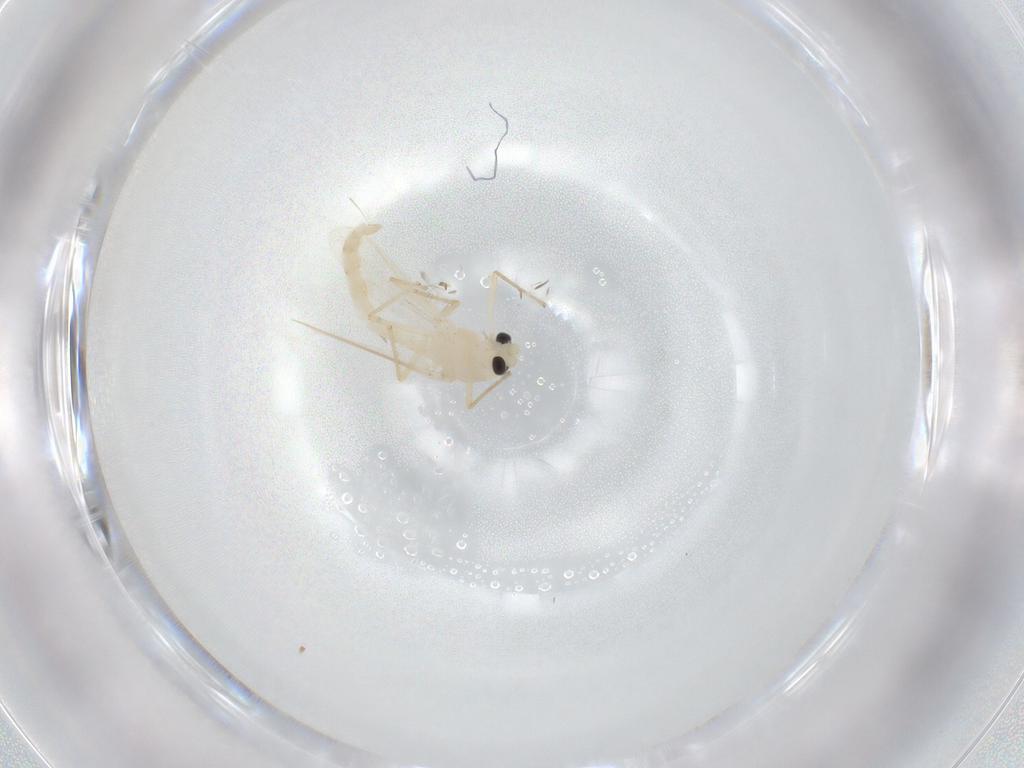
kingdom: Animalia
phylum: Arthropoda
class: Insecta
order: Diptera
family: Chironomidae
